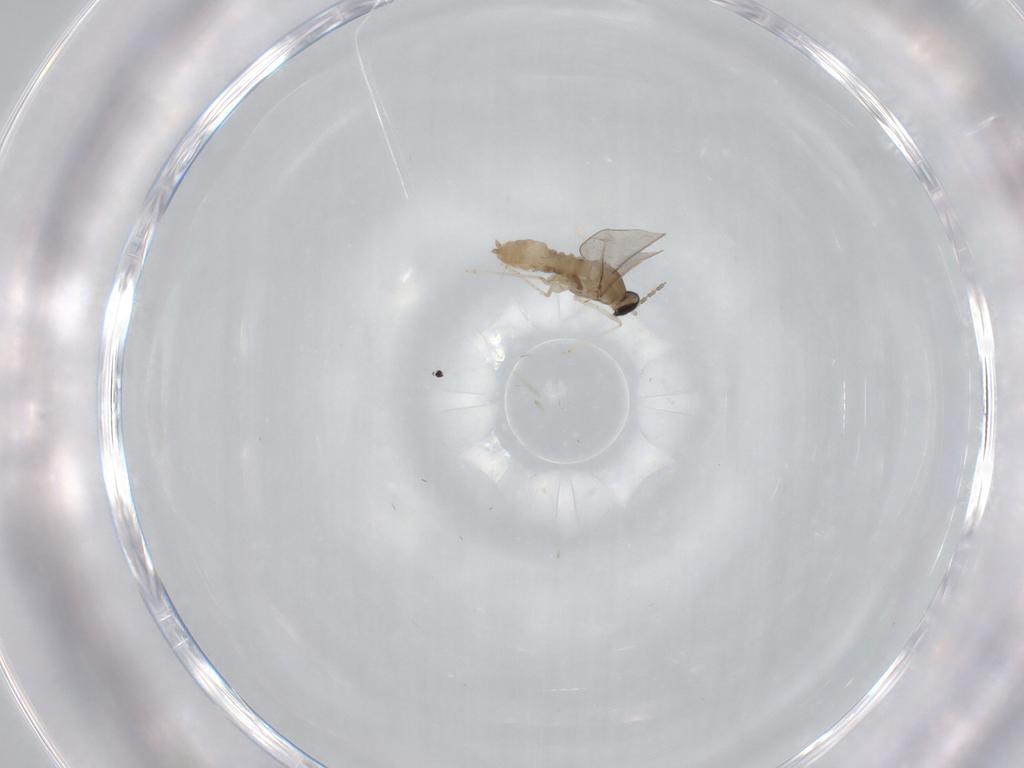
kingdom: Animalia
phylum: Arthropoda
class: Insecta
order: Diptera
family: Cecidomyiidae
